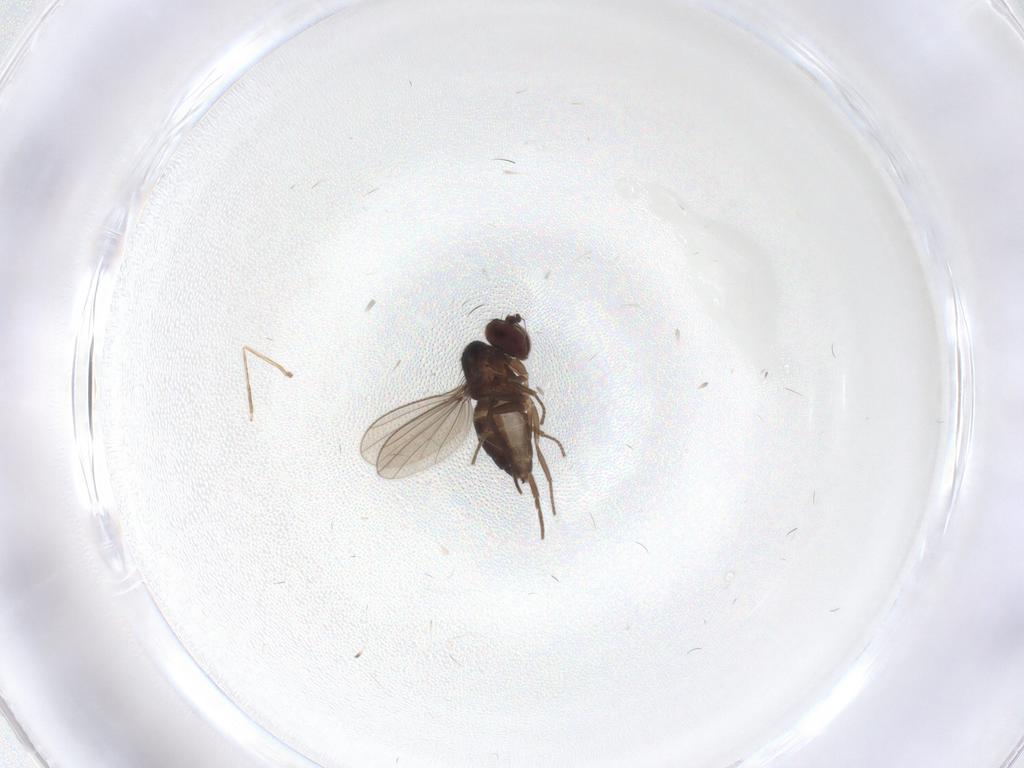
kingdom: Animalia
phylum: Arthropoda
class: Insecta
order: Diptera
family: Dolichopodidae
